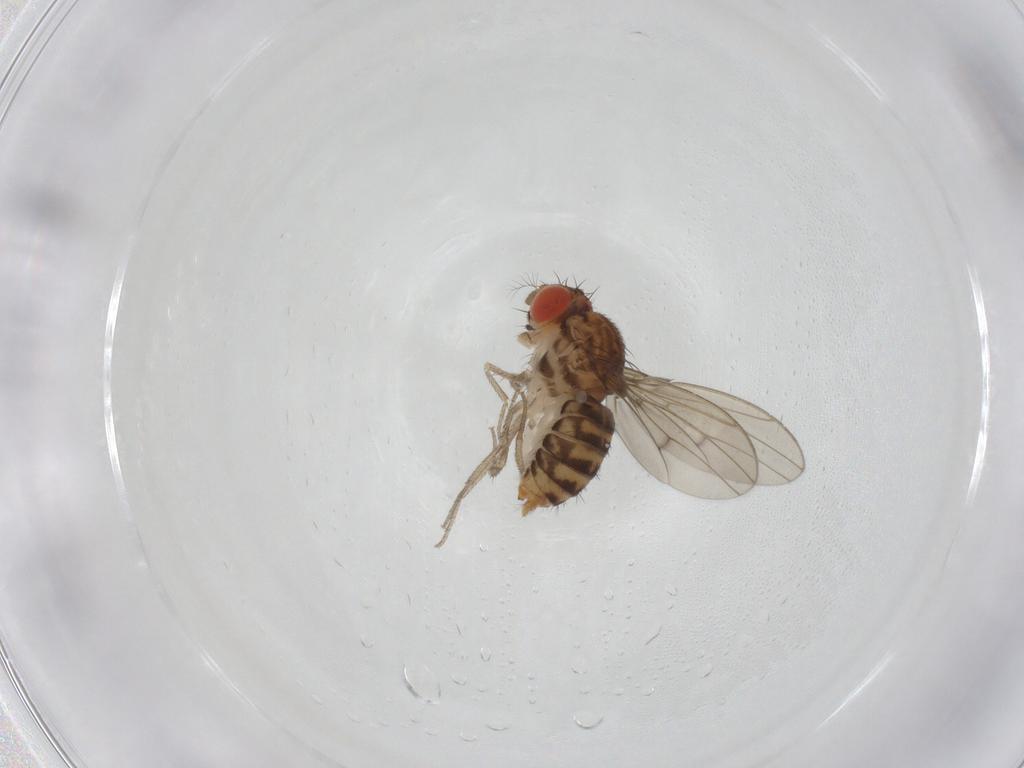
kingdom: Animalia
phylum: Arthropoda
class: Insecta
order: Diptera
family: Drosophilidae
